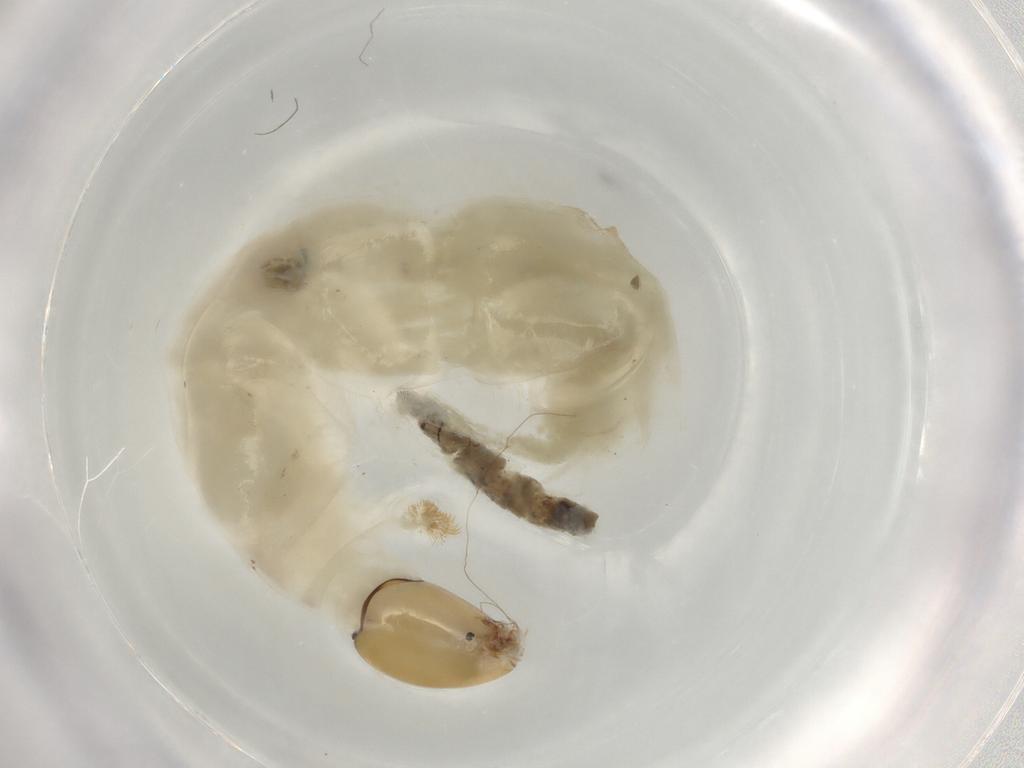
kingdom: Animalia
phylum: Arthropoda
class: Insecta
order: Diptera
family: Chironomidae
